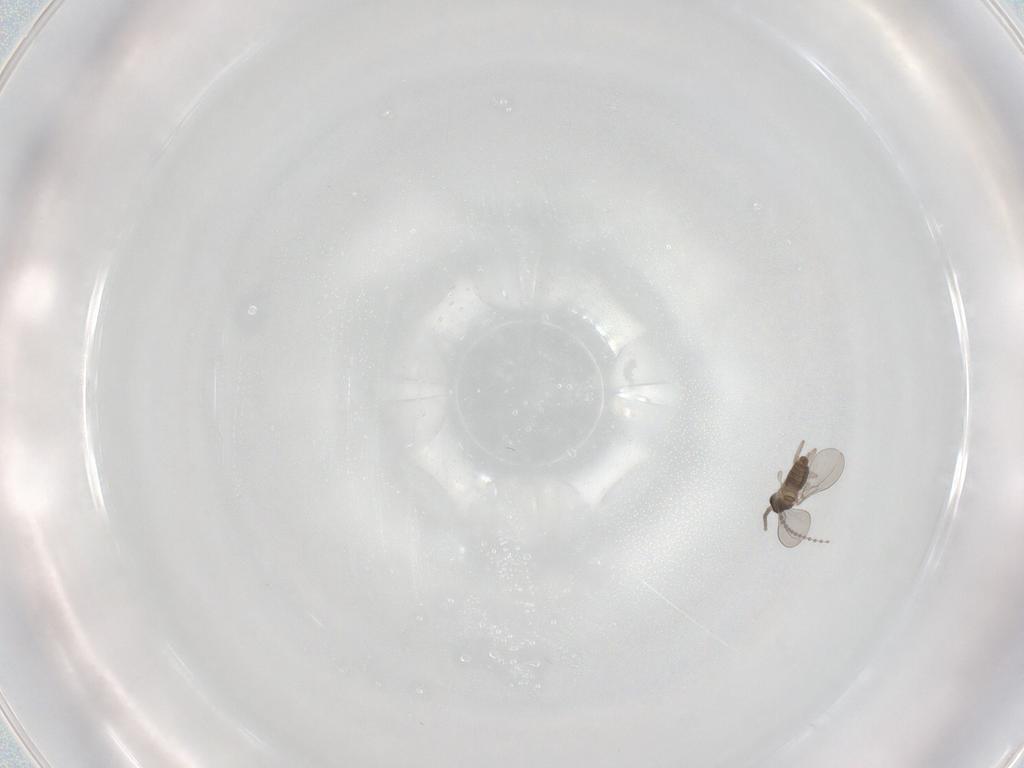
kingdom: Animalia
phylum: Arthropoda
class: Insecta
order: Diptera
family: Chironomidae
